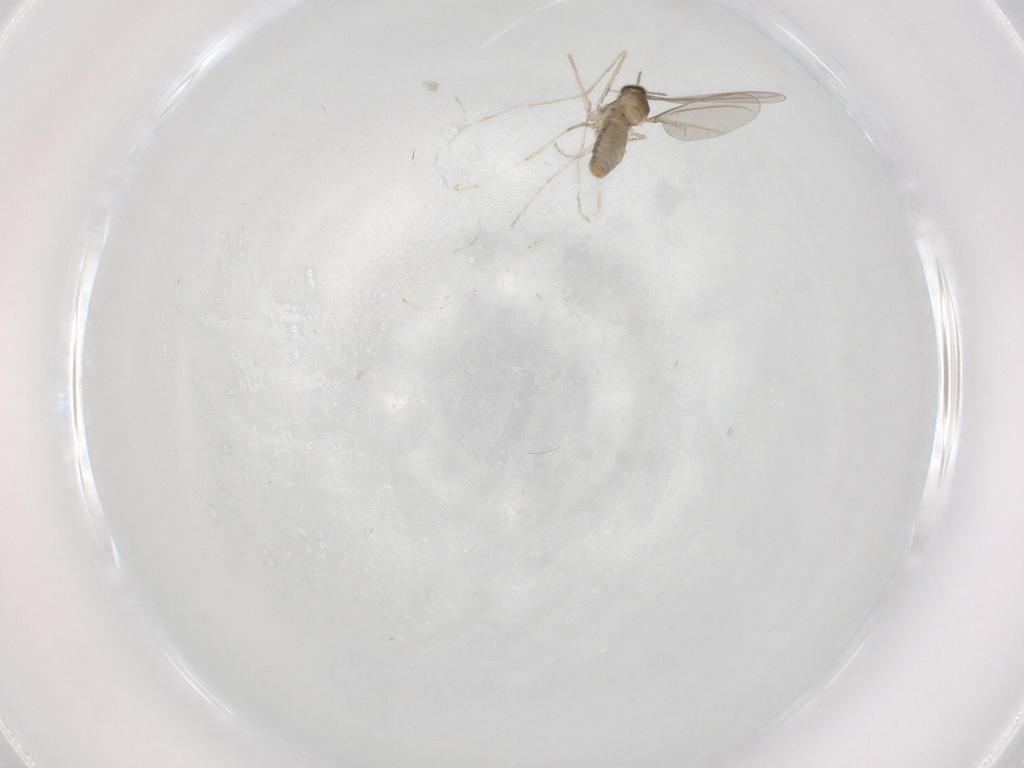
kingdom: Animalia
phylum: Arthropoda
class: Insecta
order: Diptera
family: Cecidomyiidae
